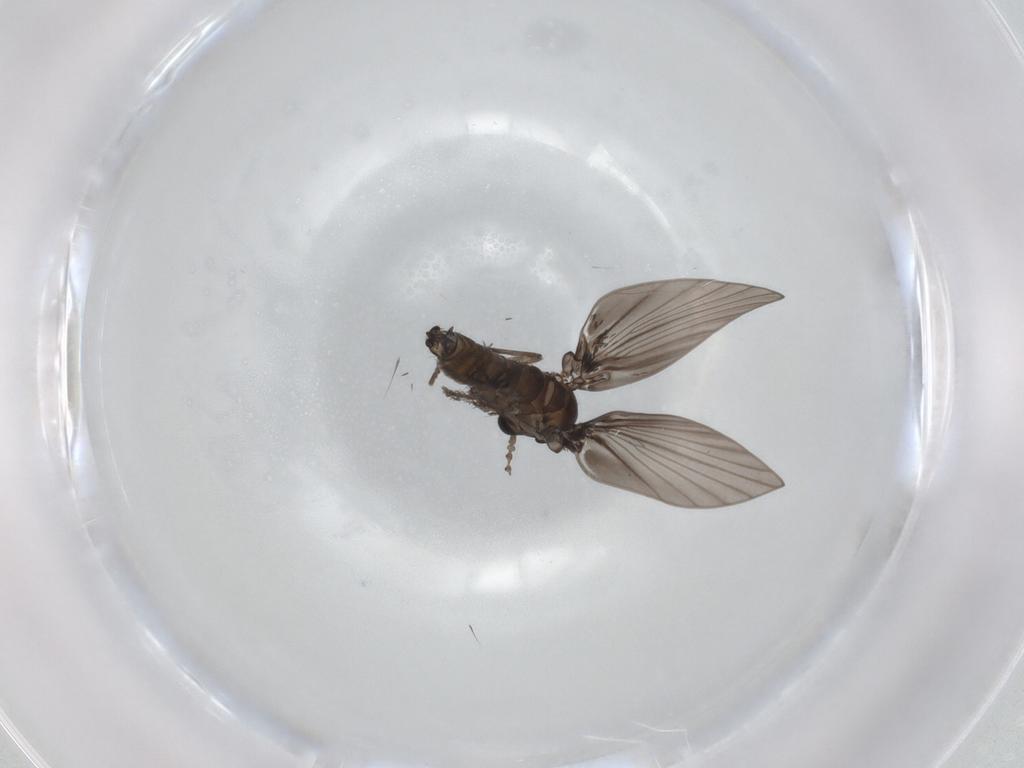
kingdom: Animalia
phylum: Arthropoda
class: Insecta
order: Diptera
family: Psychodidae
